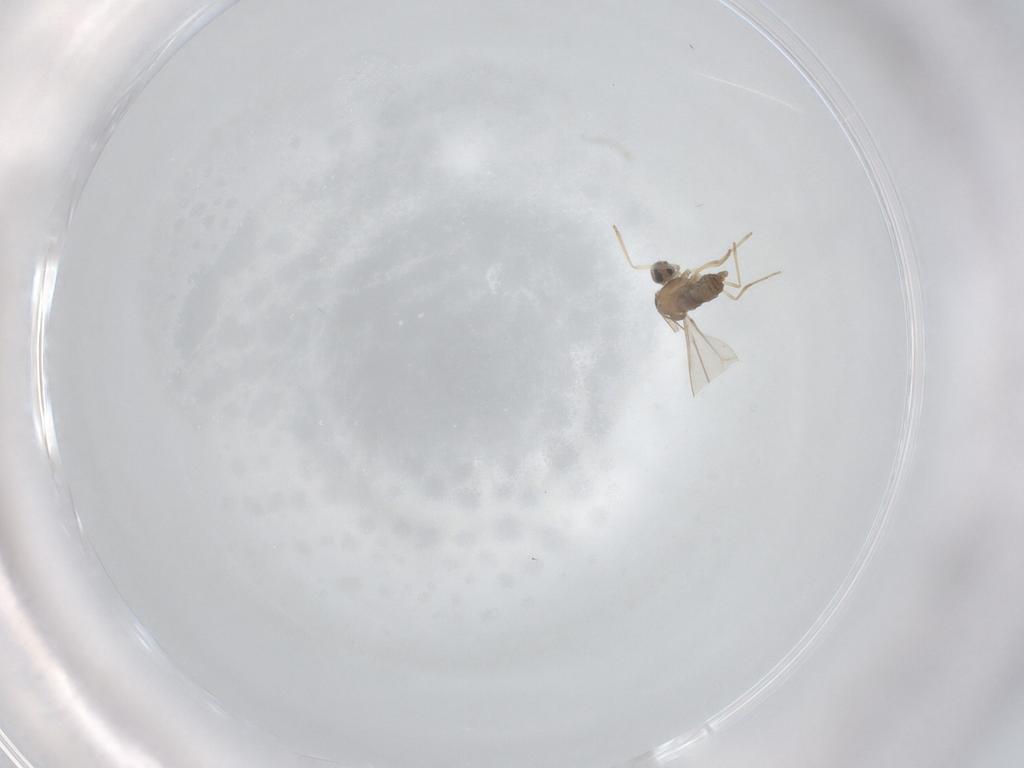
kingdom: Animalia
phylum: Arthropoda
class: Insecta
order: Diptera
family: Cecidomyiidae
